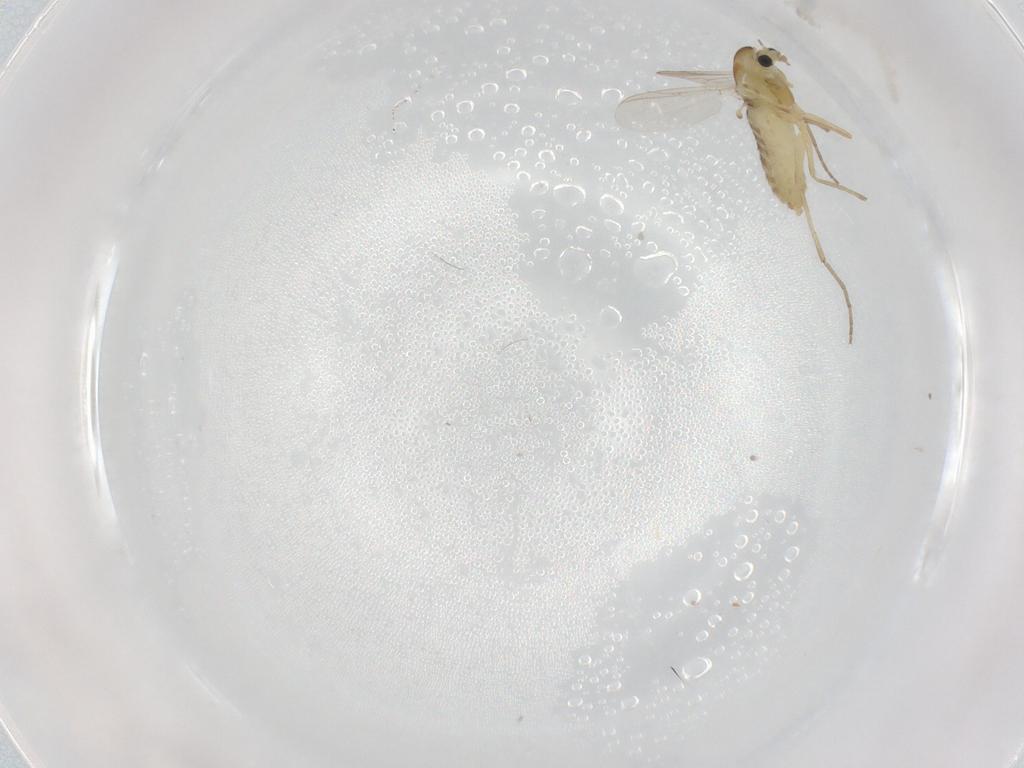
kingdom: Animalia
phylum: Arthropoda
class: Insecta
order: Diptera
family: Chironomidae
